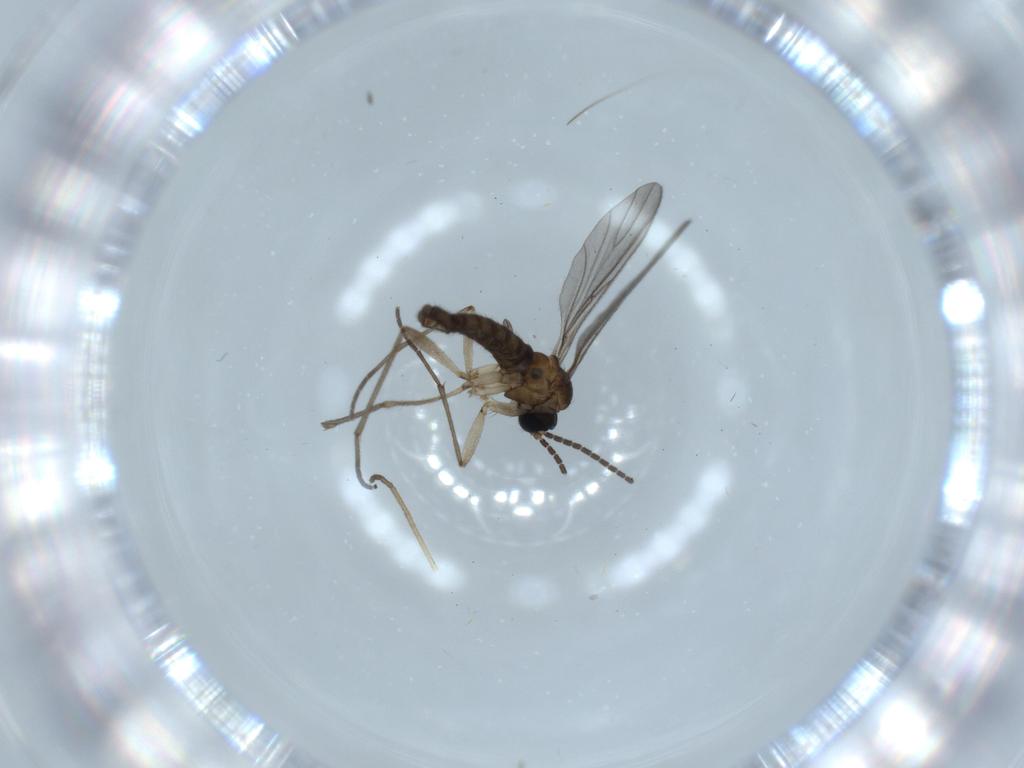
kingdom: Animalia
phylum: Arthropoda
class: Insecta
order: Diptera
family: Sciaridae
